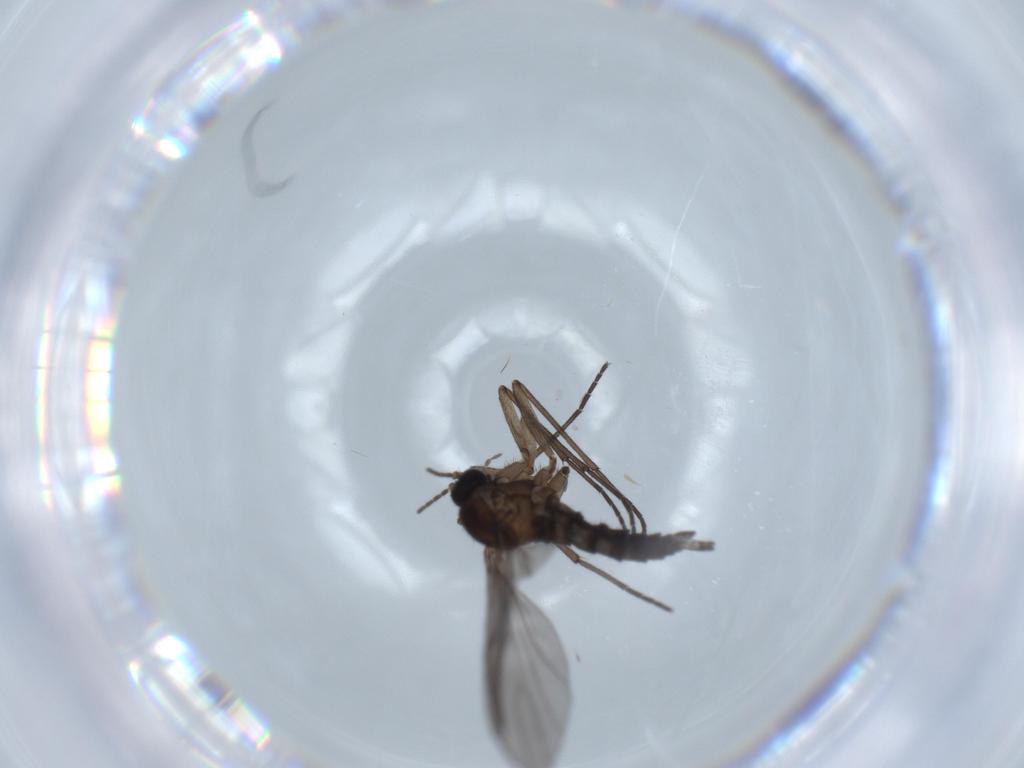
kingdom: Animalia
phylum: Arthropoda
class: Insecta
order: Diptera
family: Sciaridae
